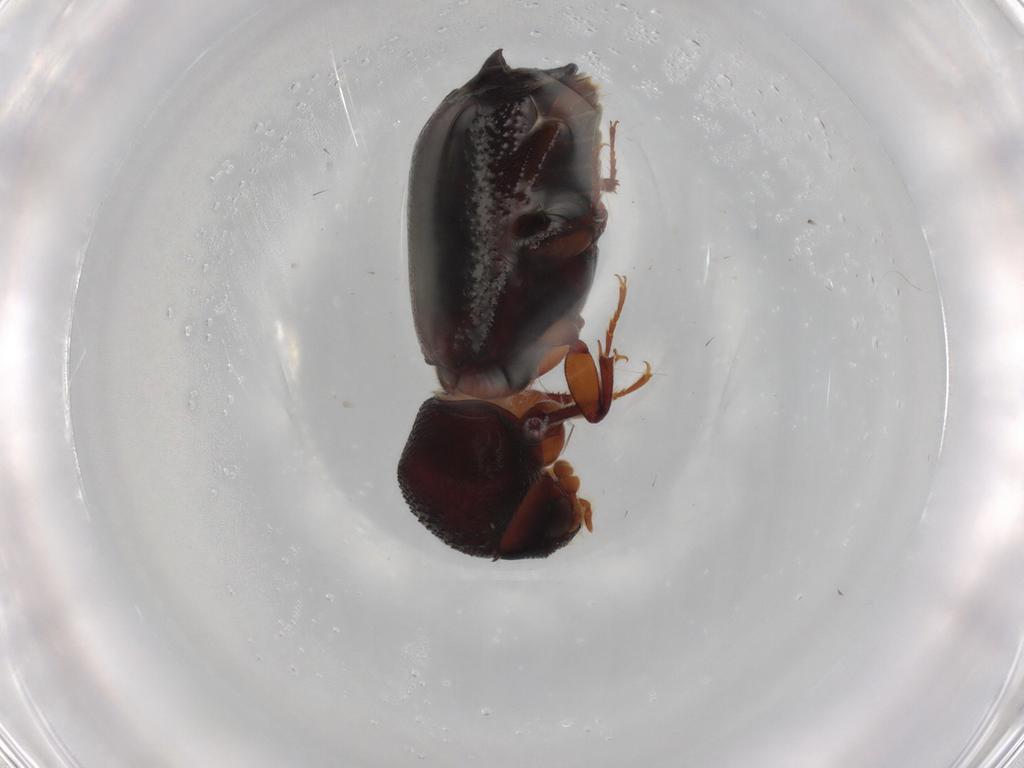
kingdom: Animalia
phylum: Arthropoda
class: Insecta
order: Coleoptera
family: Bostrichidae
